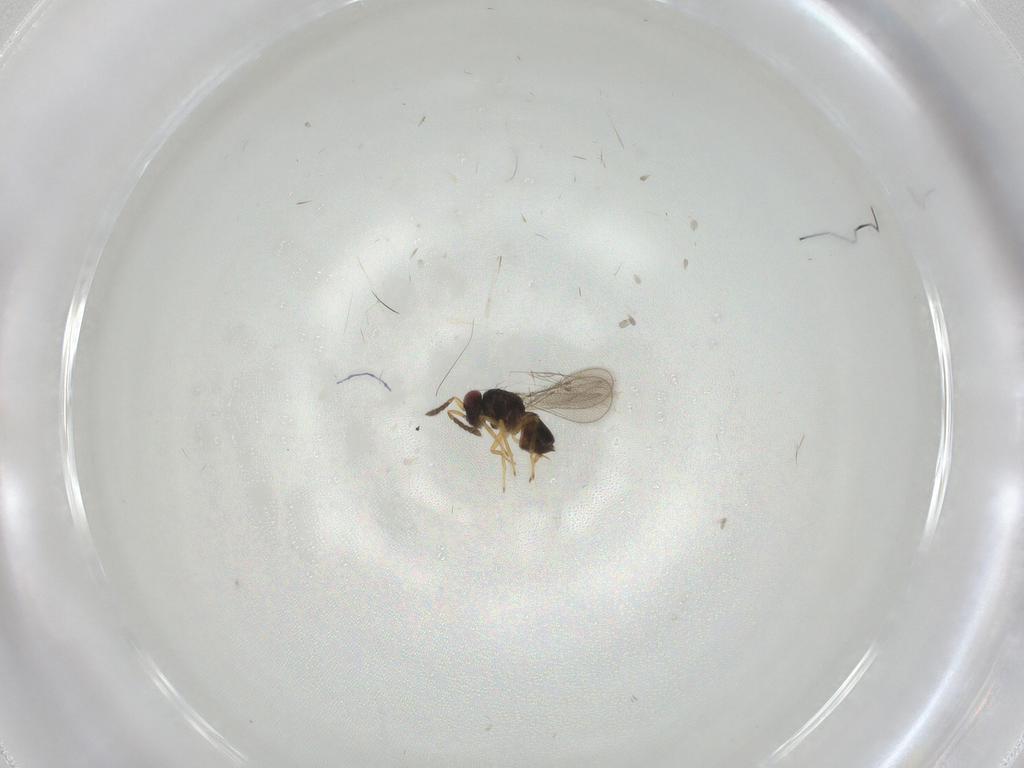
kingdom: Animalia
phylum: Arthropoda
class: Insecta
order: Hymenoptera
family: Eulophidae
